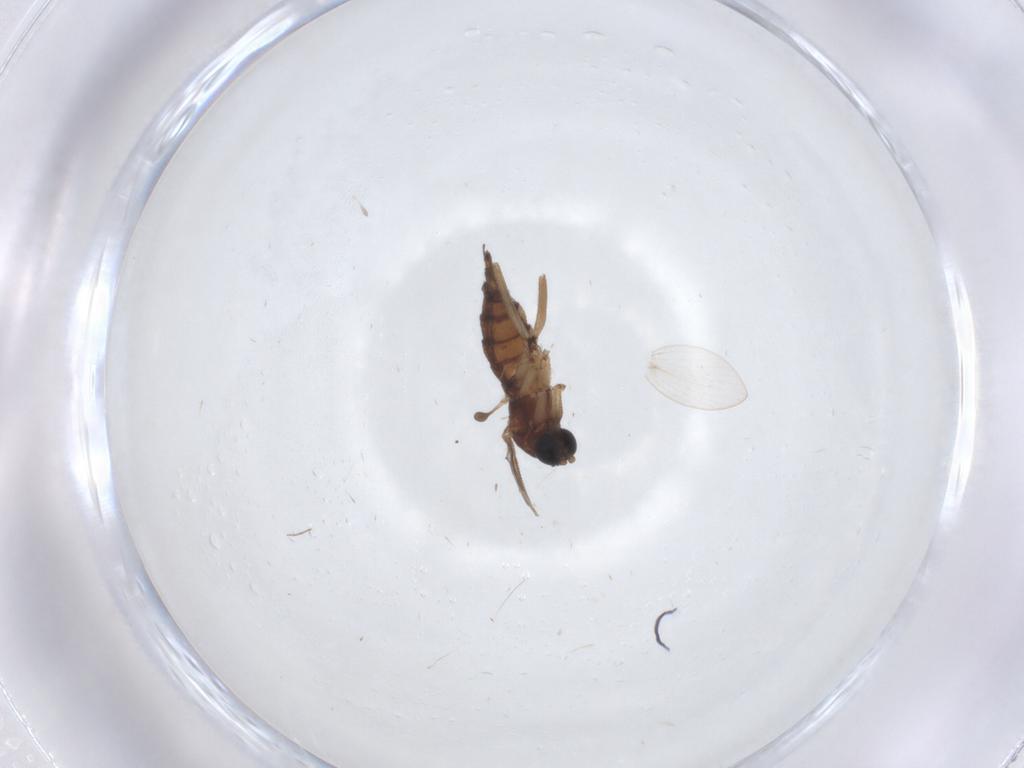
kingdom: Animalia
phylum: Arthropoda
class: Insecta
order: Diptera
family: Sciaridae
